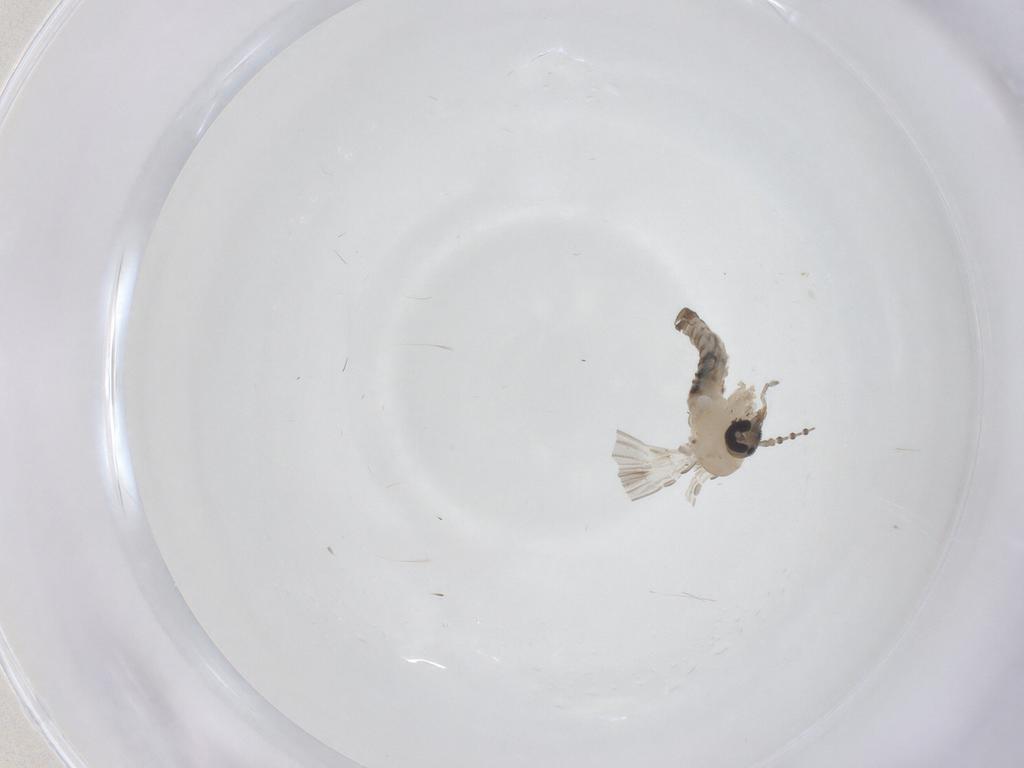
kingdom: Animalia
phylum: Arthropoda
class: Insecta
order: Diptera
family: Psychodidae
